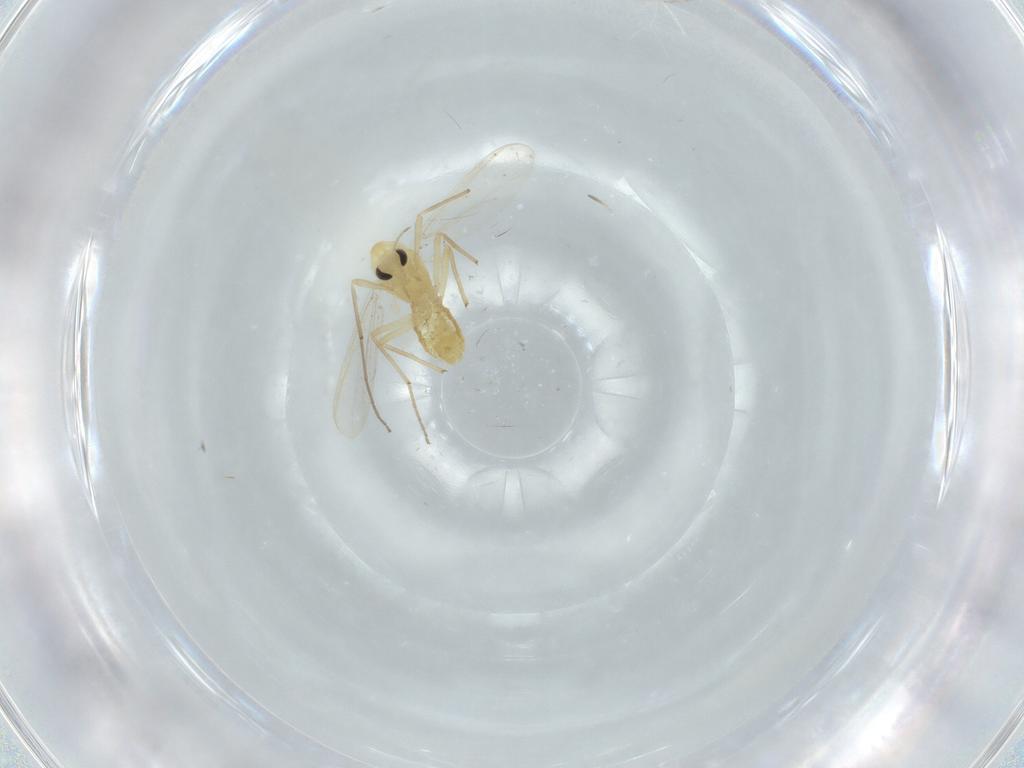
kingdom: Animalia
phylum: Arthropoda
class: Insecta
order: Diptera
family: Chironomidae
